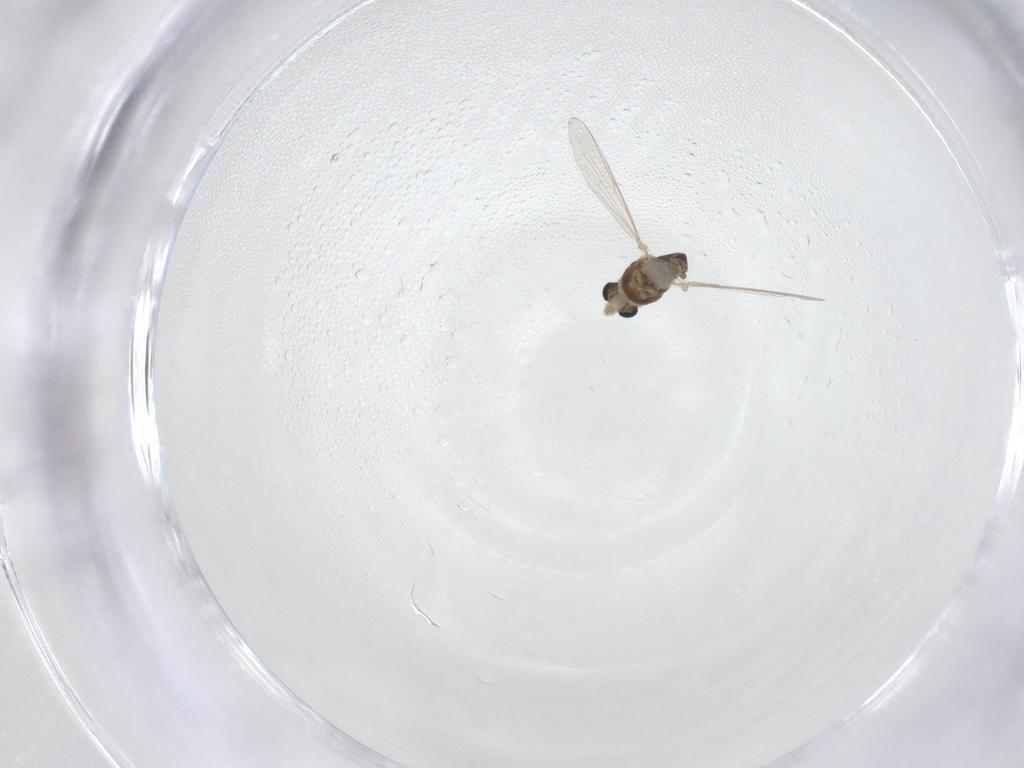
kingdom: Animalia
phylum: Arthropoda
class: Insecta
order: Diptera
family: Chironomidae
